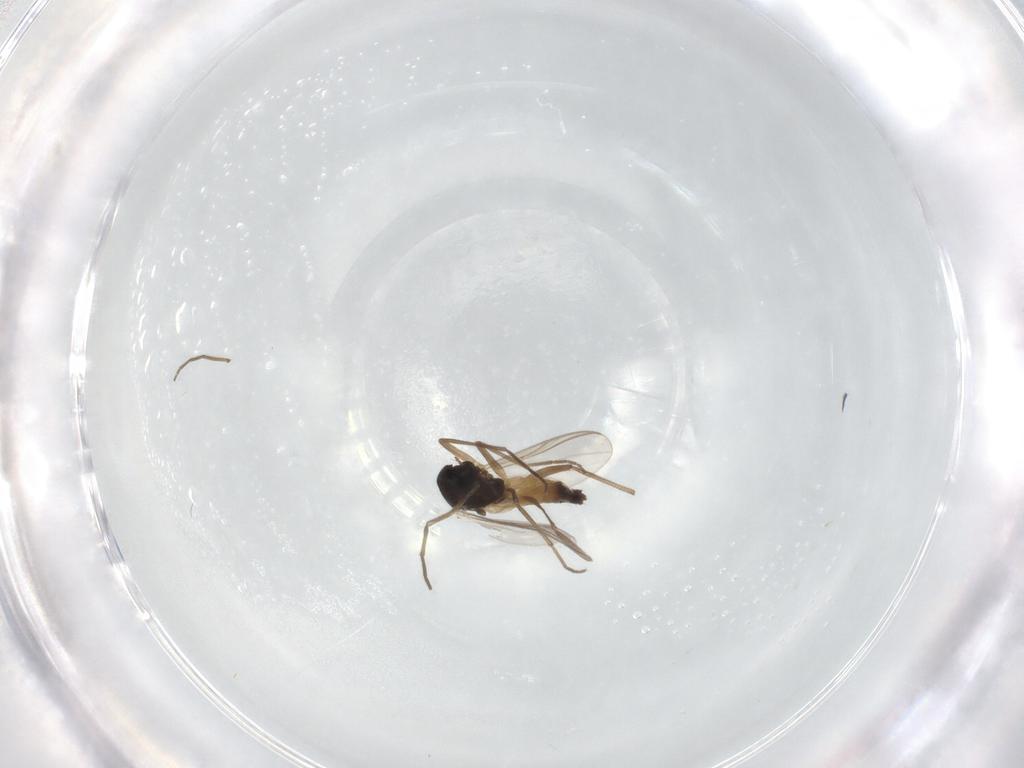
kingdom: Animalia
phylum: Arthropoda
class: Insecta
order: Diptera
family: Chironomidae
